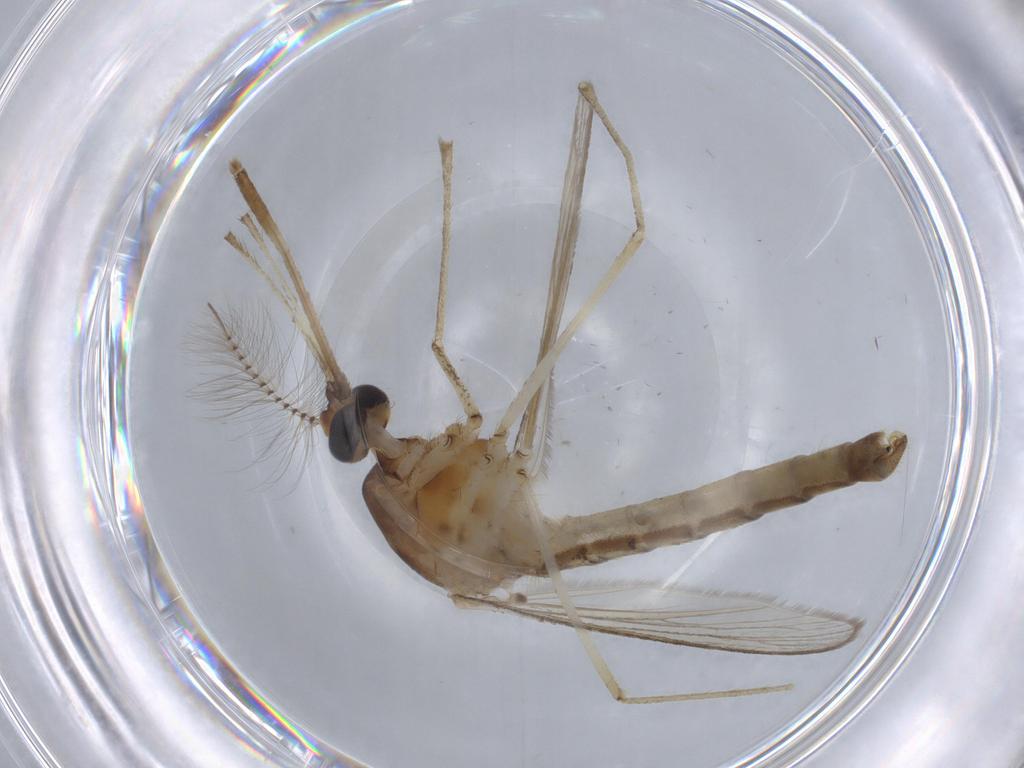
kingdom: Animalia
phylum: Arthropoda
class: Insecta
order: Diptera
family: Culicidae
